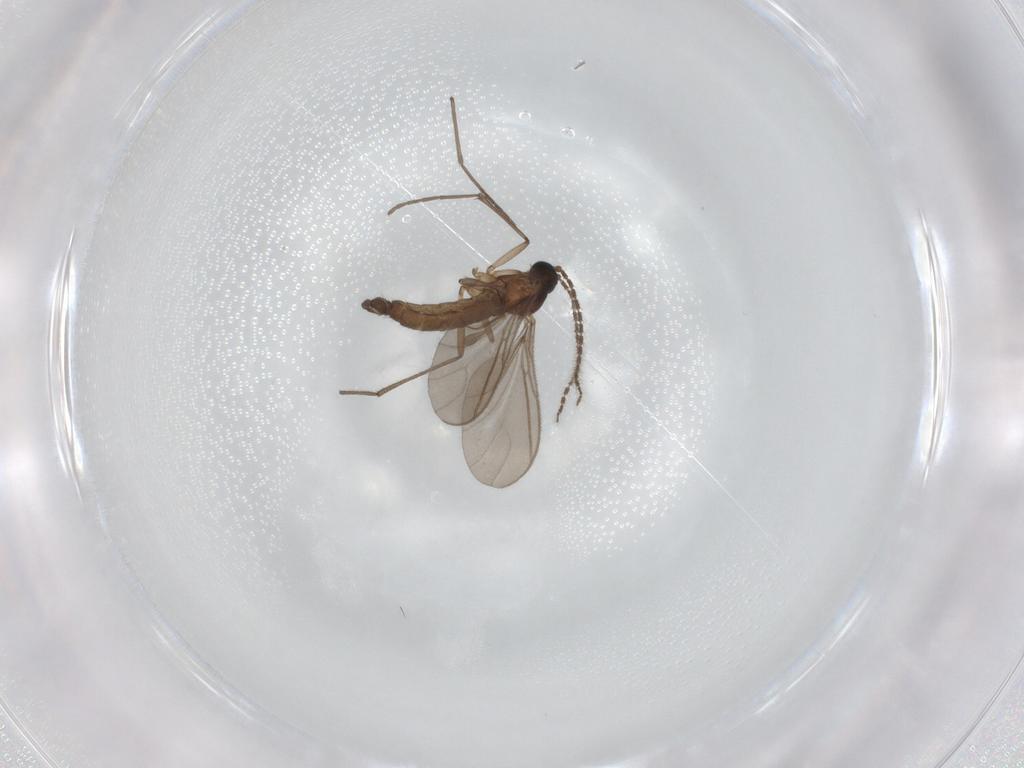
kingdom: Animalia
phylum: Arthropoda
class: Insecta
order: Diptera
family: Sciaridae
